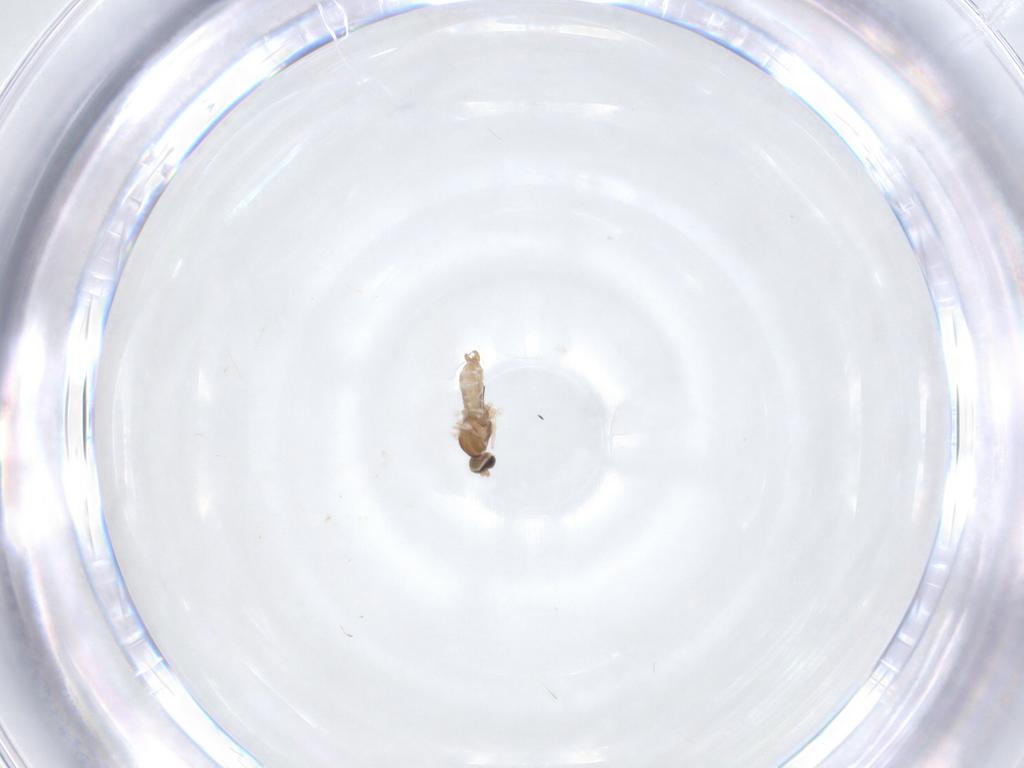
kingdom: Animalia
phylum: Arthropoda
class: Insecta
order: Diptera
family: Cecidomyiidae
